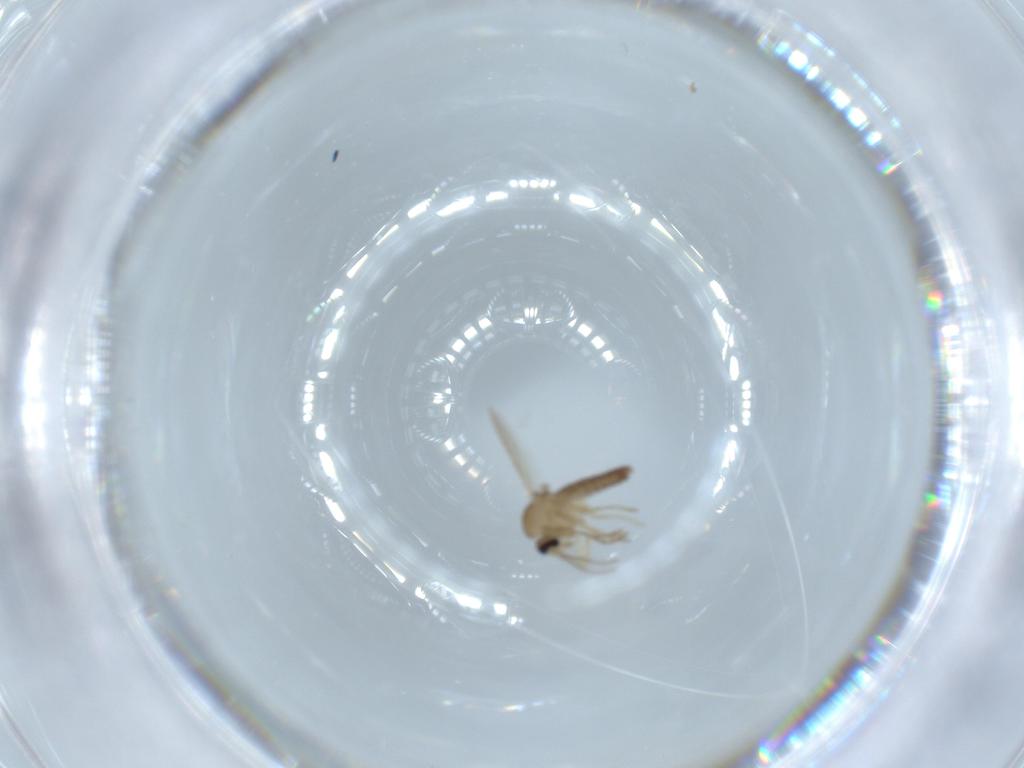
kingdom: Animalia
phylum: Arthropoda
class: Insecta
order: Diptera
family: Ceratopogonidae
